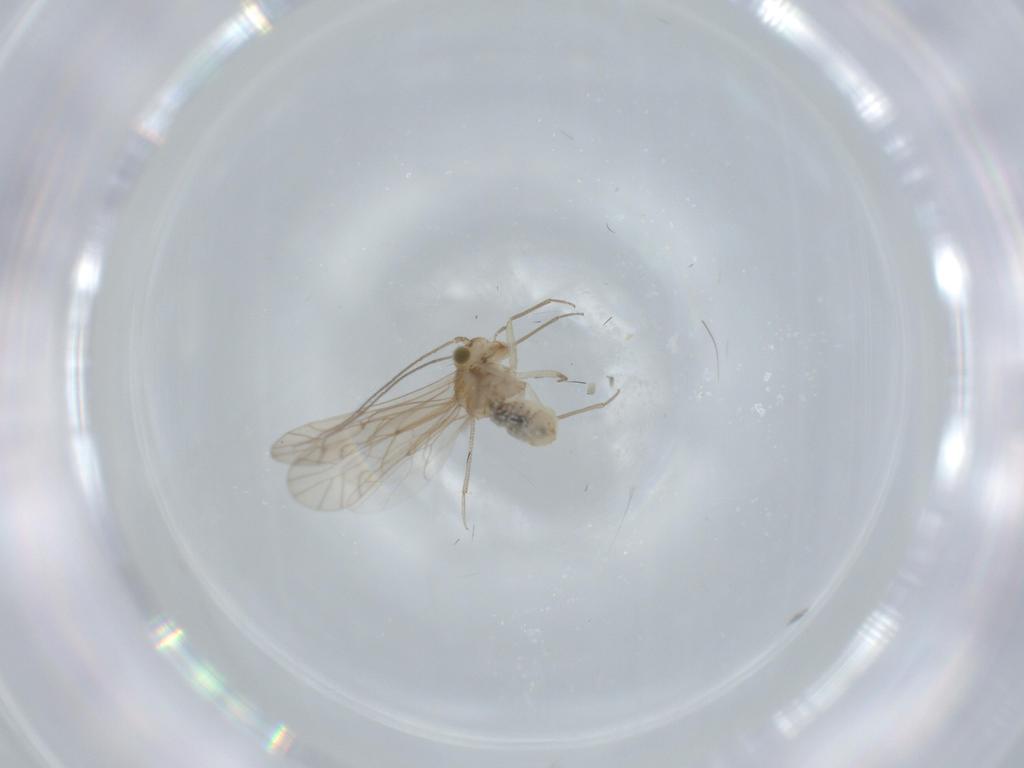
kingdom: Animalia
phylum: Arthropoda
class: Insecta
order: Psocodea
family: Lachesillidae
